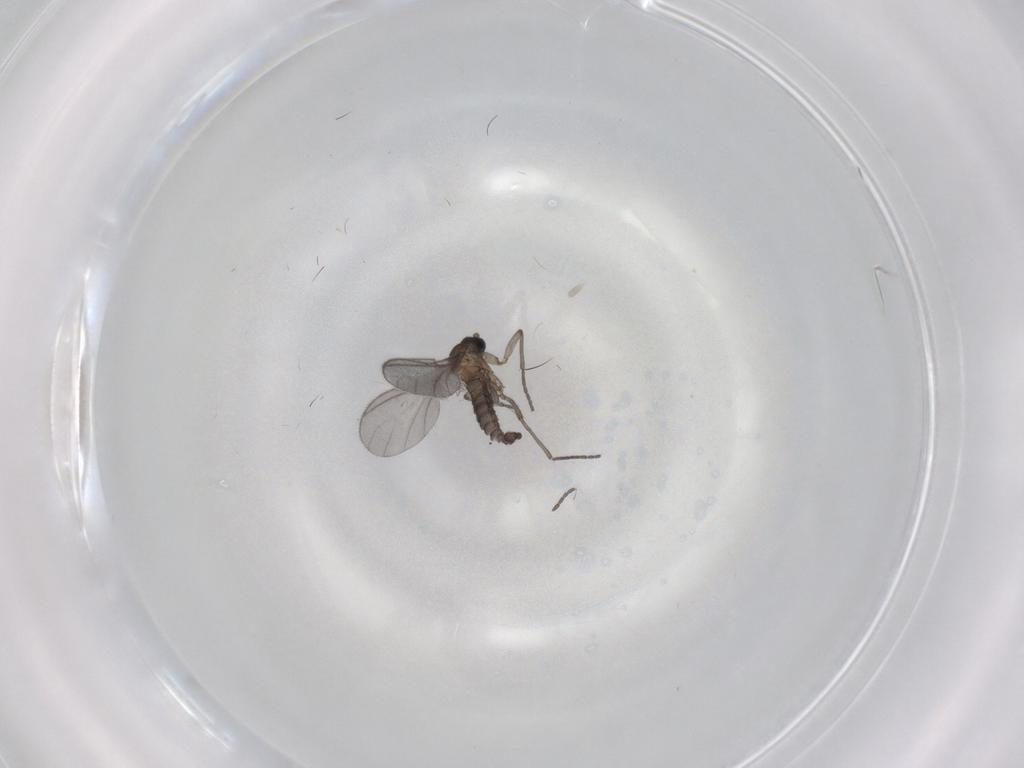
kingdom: Animalia
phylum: Arthropoda
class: Insecta
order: Diptera
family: Sciaridae
